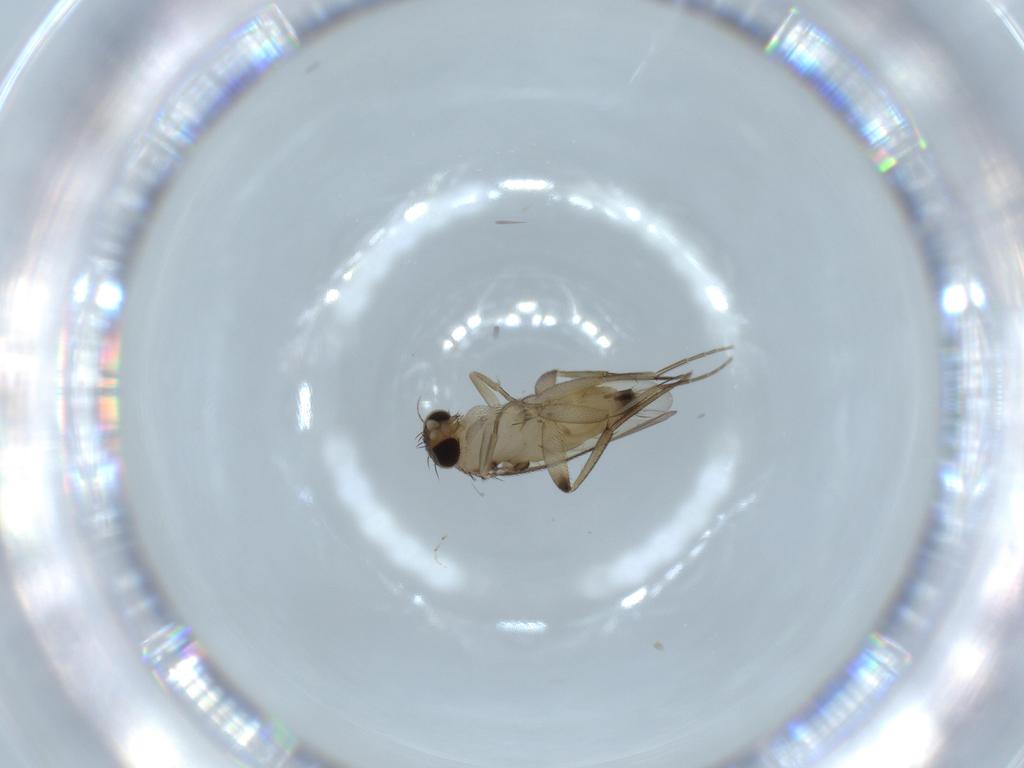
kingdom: Animalia
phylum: Arthropoda
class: Insecta
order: Diptera
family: Phoridae
